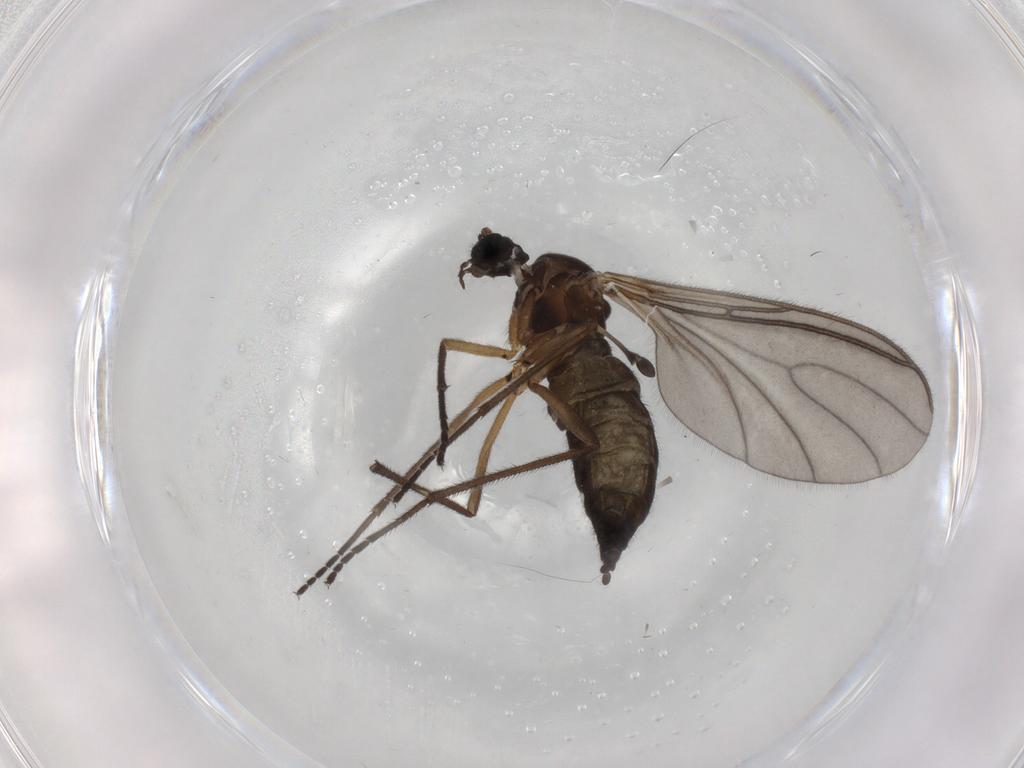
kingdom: Animalia
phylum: Arthropoda
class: Insecta
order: Diptera
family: Sciaridae
